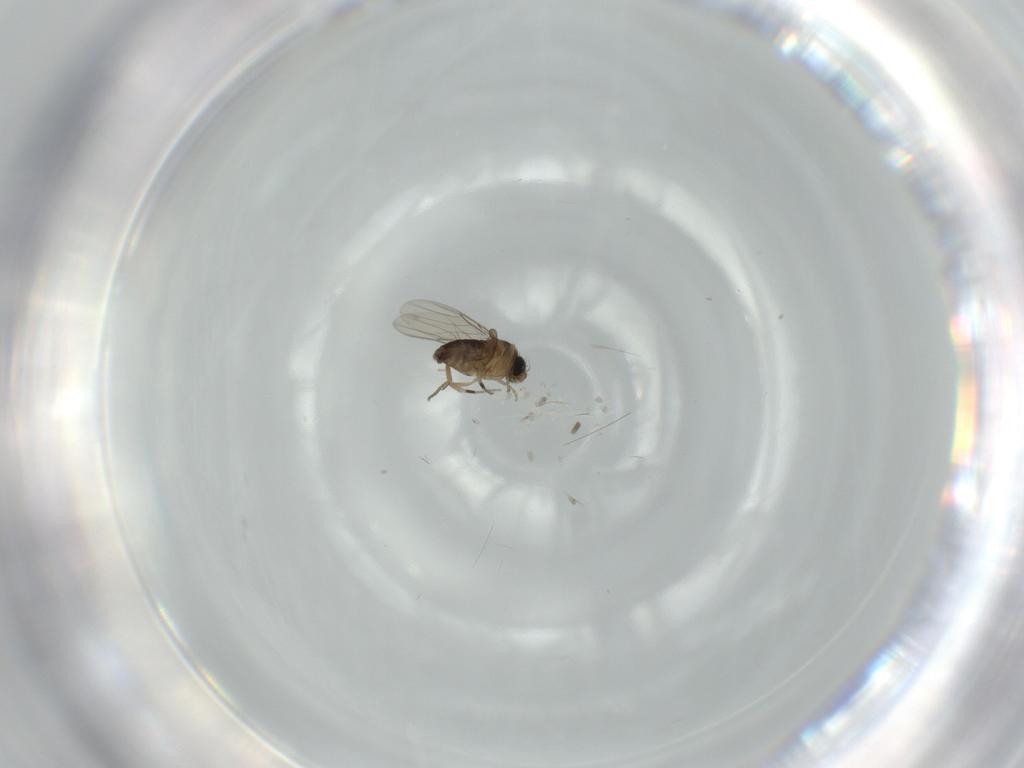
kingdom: Animalia
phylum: Arthropoda
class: Insecta
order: Diptera
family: Phoridae
